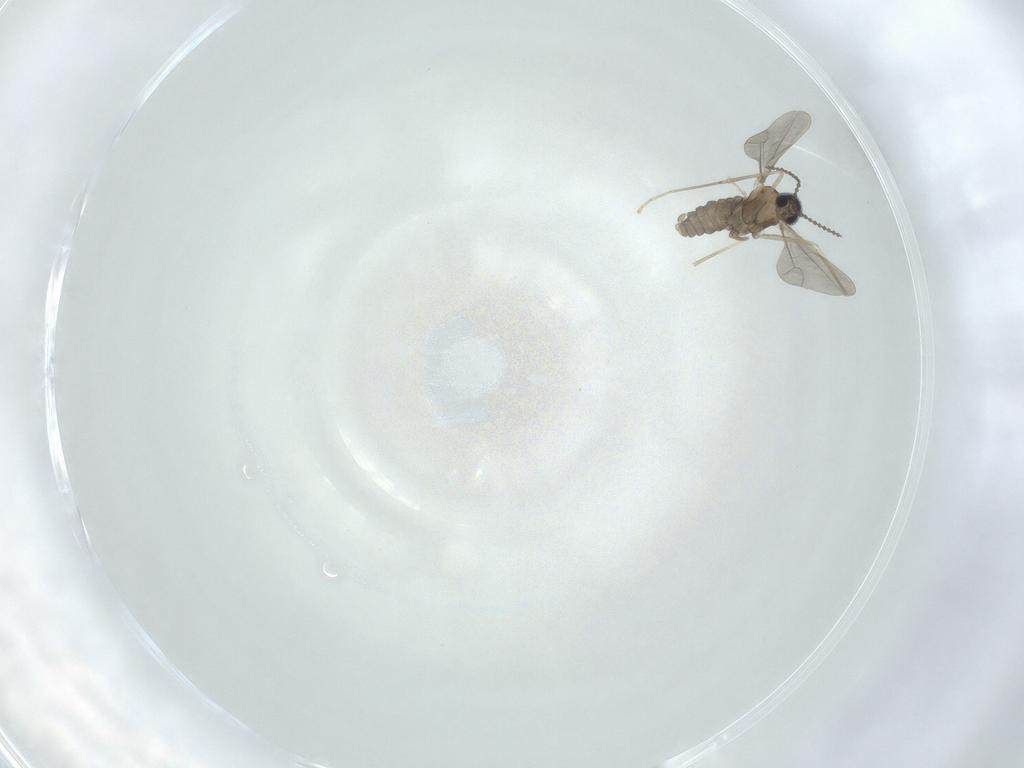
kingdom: Animalia
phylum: Arthropoda
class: Insecta
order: Diptera
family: Cecidomyiidae
